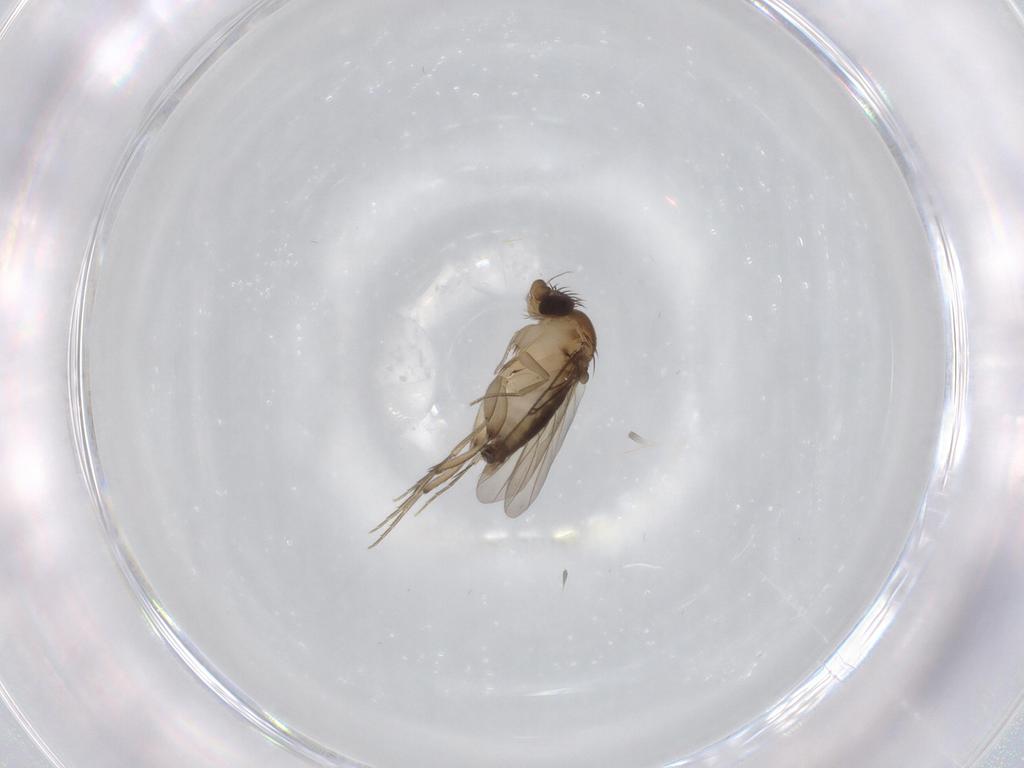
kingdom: Animalia
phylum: Arthropoda
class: Insecta
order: Diptera
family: Phoridae
